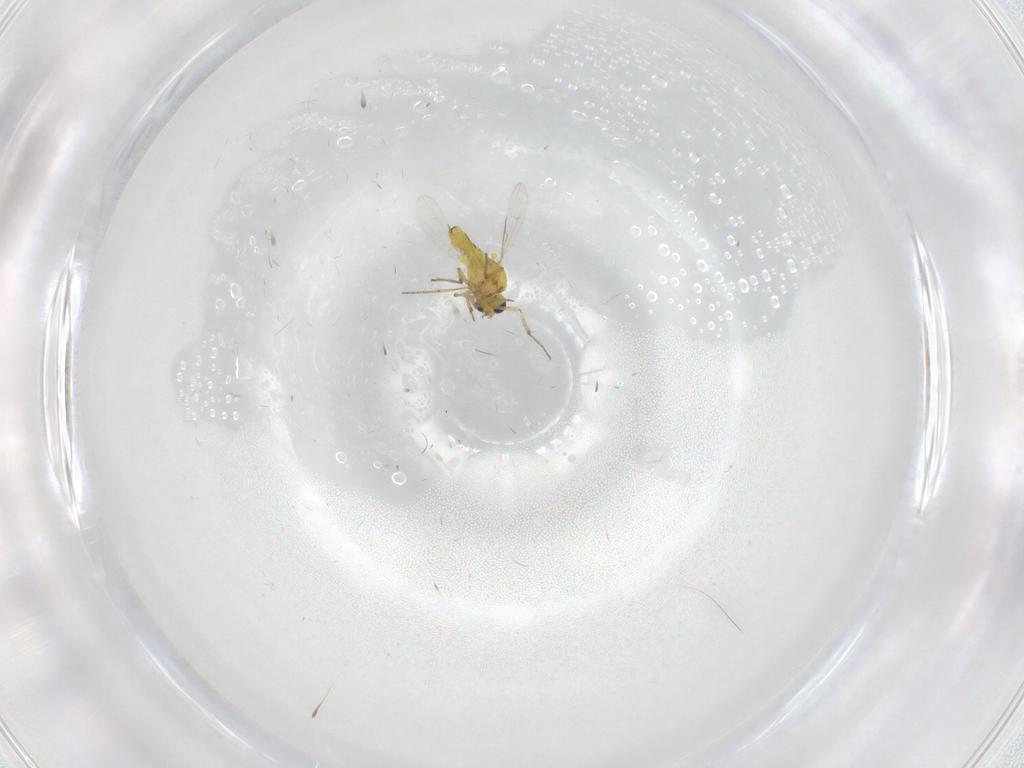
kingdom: Animalia
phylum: Arthropoda
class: Insecta
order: Diptera
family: Ceratopogonidae
